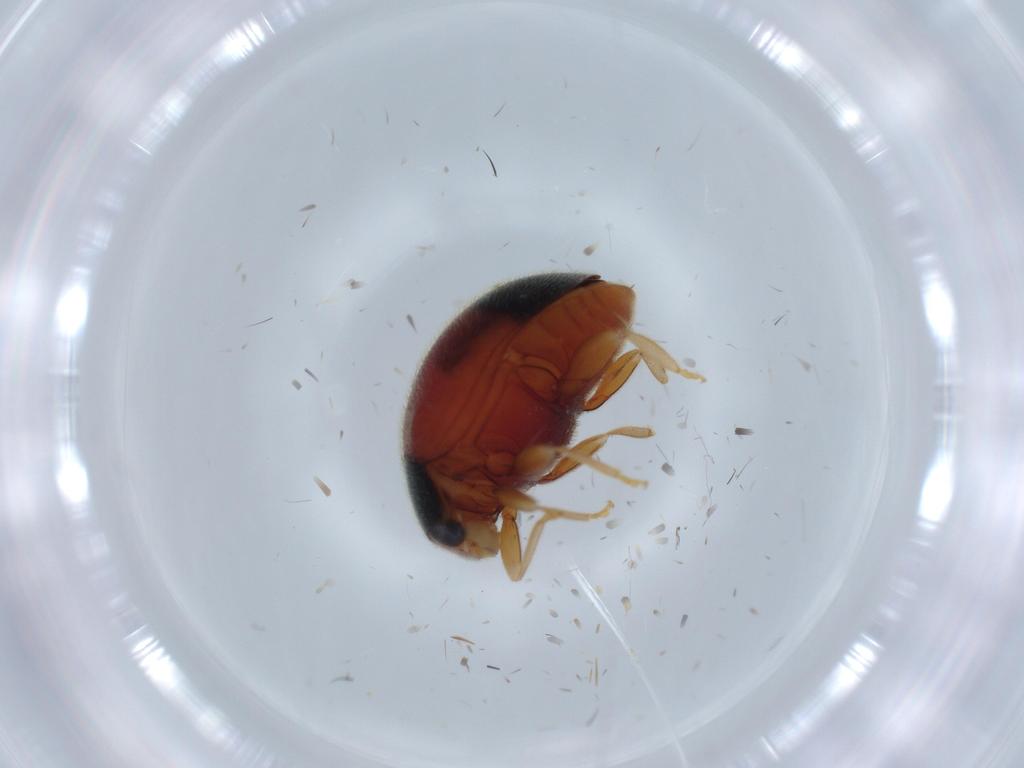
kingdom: Animalia
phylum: Arthropoda
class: Insecta
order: Coleoptera
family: Coccinellidae
